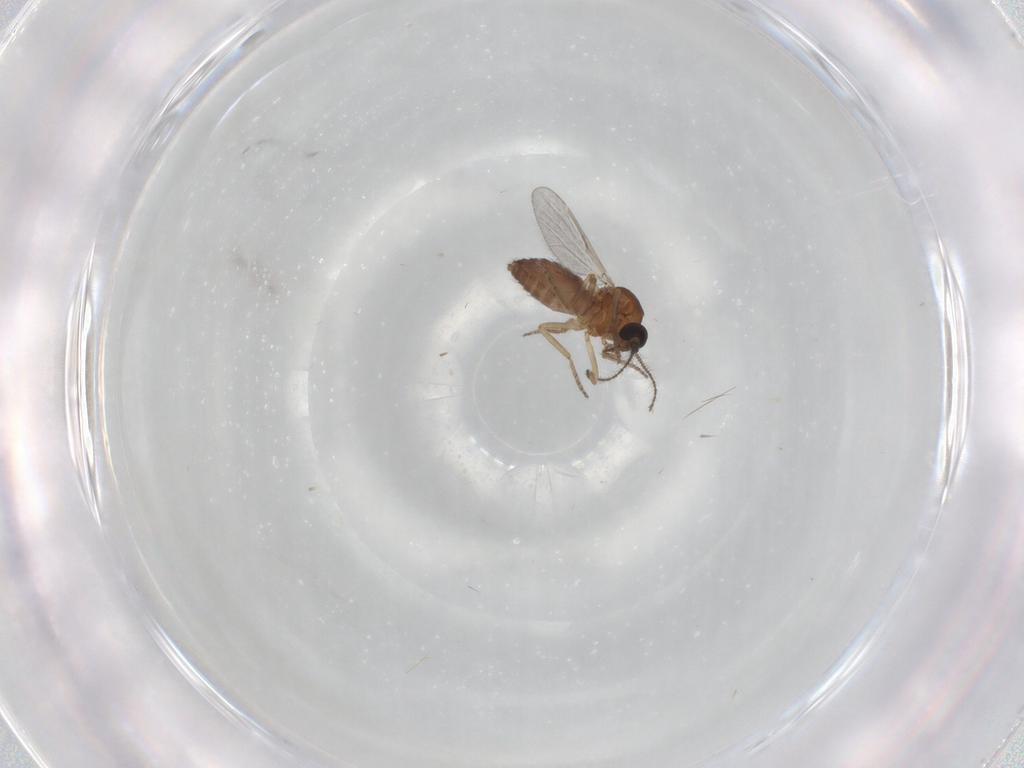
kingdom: Animalia
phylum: Arthropoda
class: Insecta
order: Diptera
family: Ceratopogonidae
